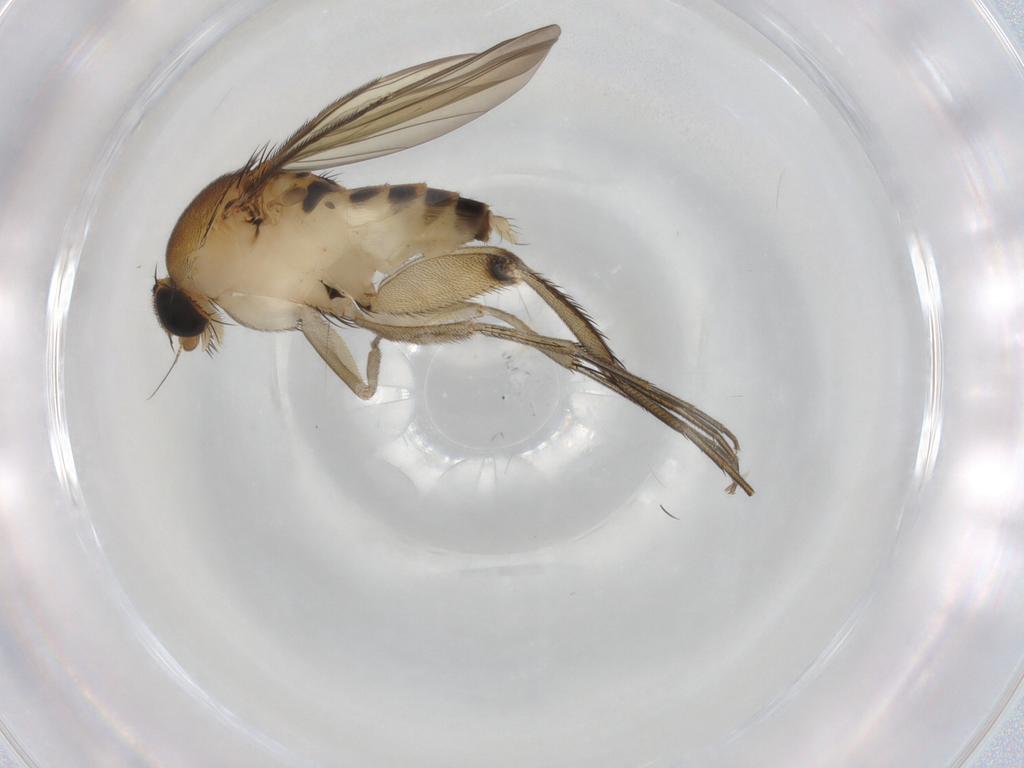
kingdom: Animalia
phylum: Arthropoda
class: Insecta
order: Diptera
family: Phoridae
